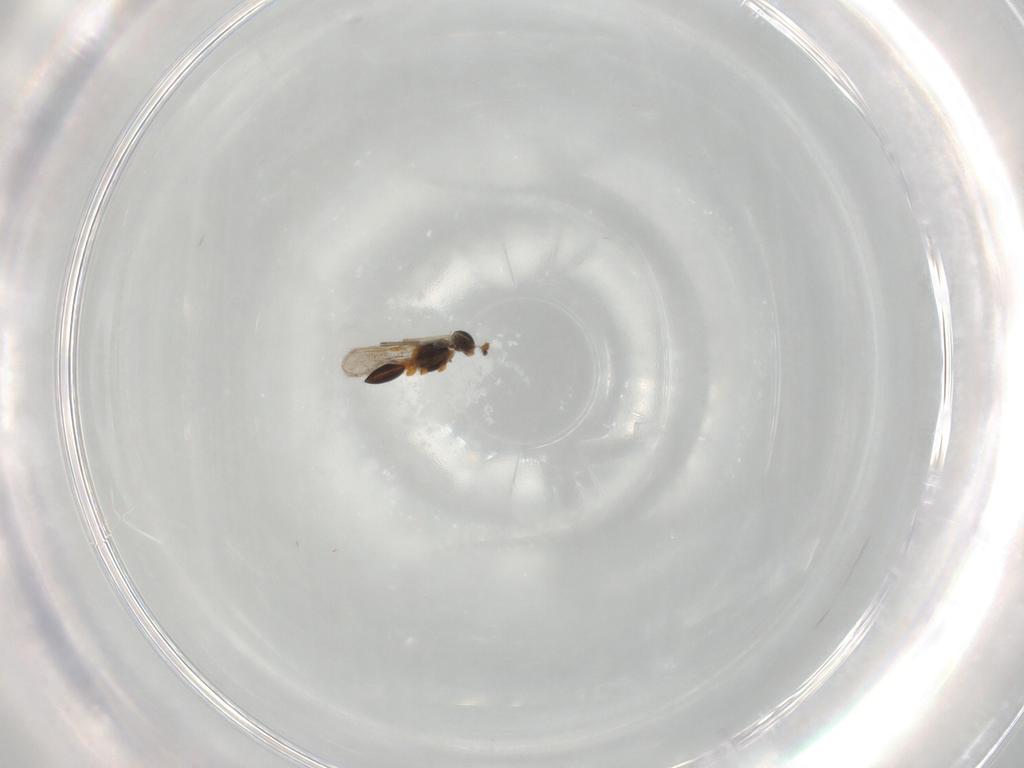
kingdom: Animalia
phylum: Arthropoda
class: Insecta
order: Hymenoptera
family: Platygastridae
